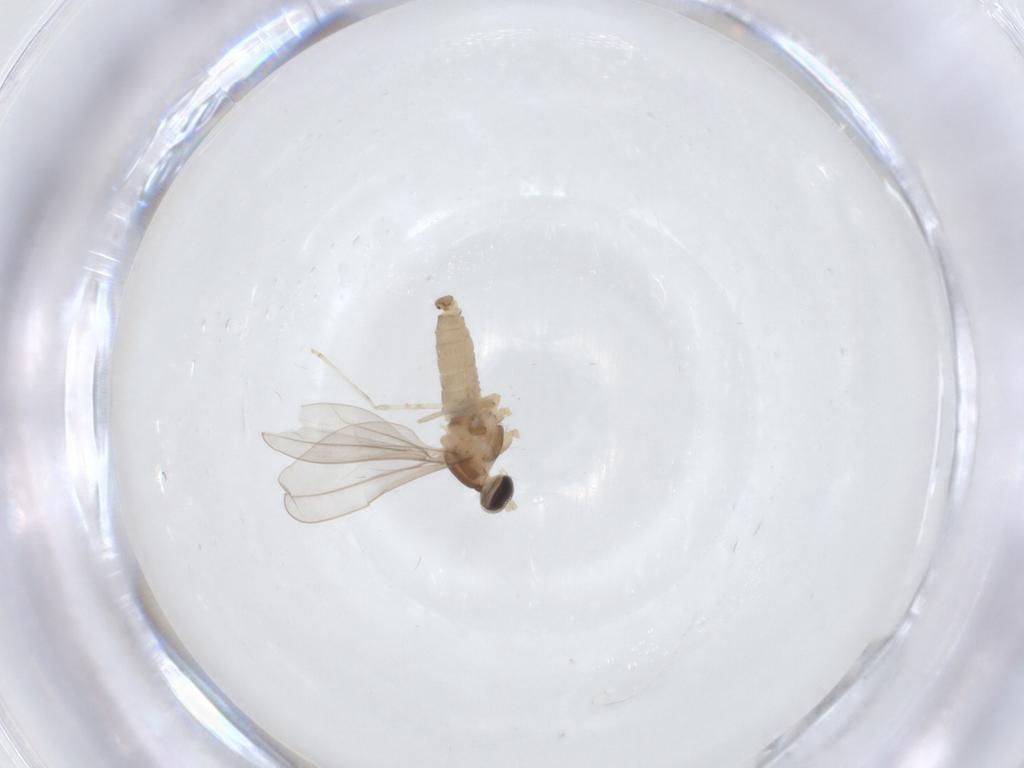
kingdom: Animalia
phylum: Arthropoda
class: Insecta
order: Diptera
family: Cecidomyiidae
